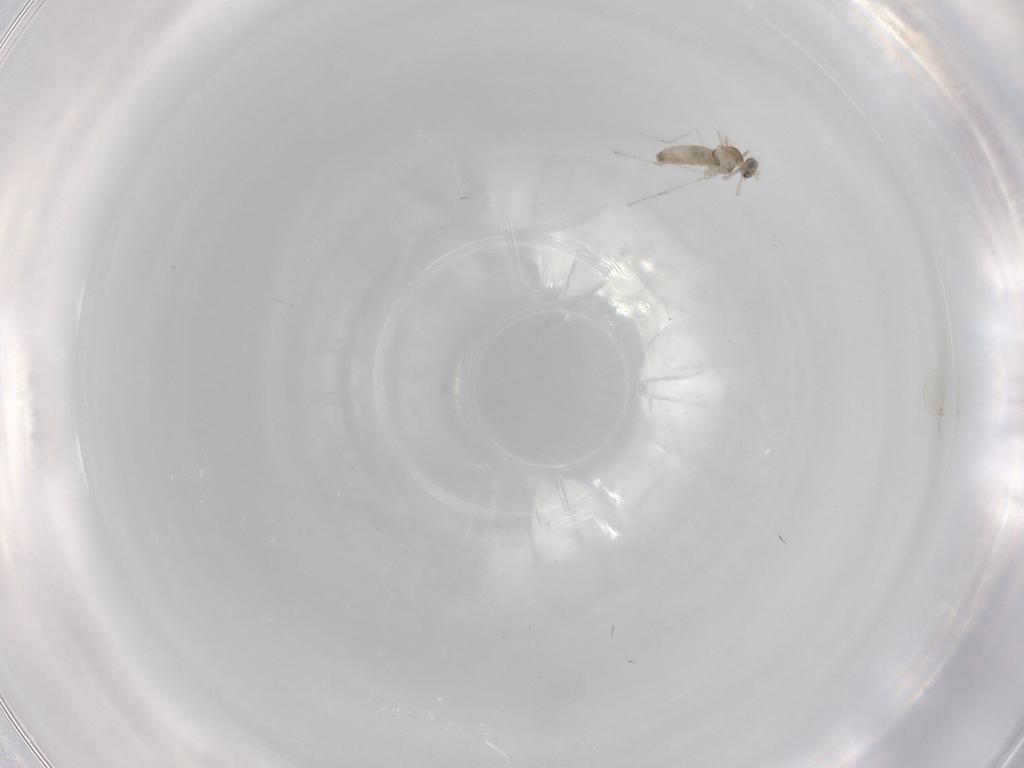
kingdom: Animalia
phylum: Arthropoda
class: Insecta
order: Diptera
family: Cecidomyiidae
